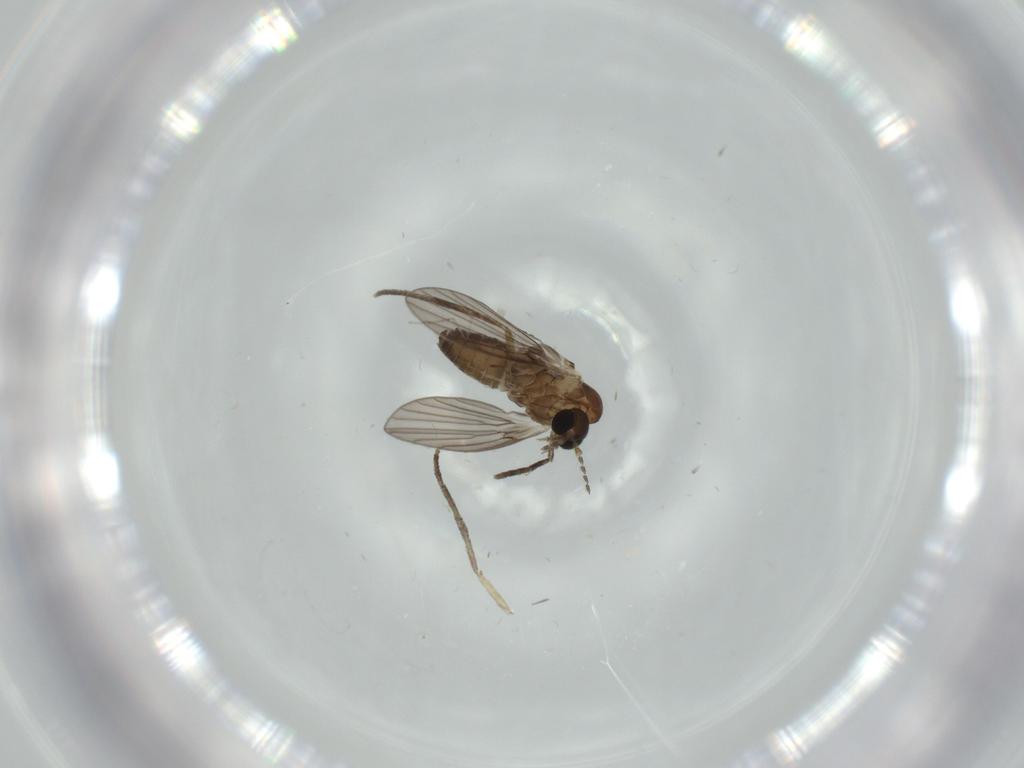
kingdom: Animalia
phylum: Arthropoda
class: Insecta
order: Diptera
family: Psychodidae
